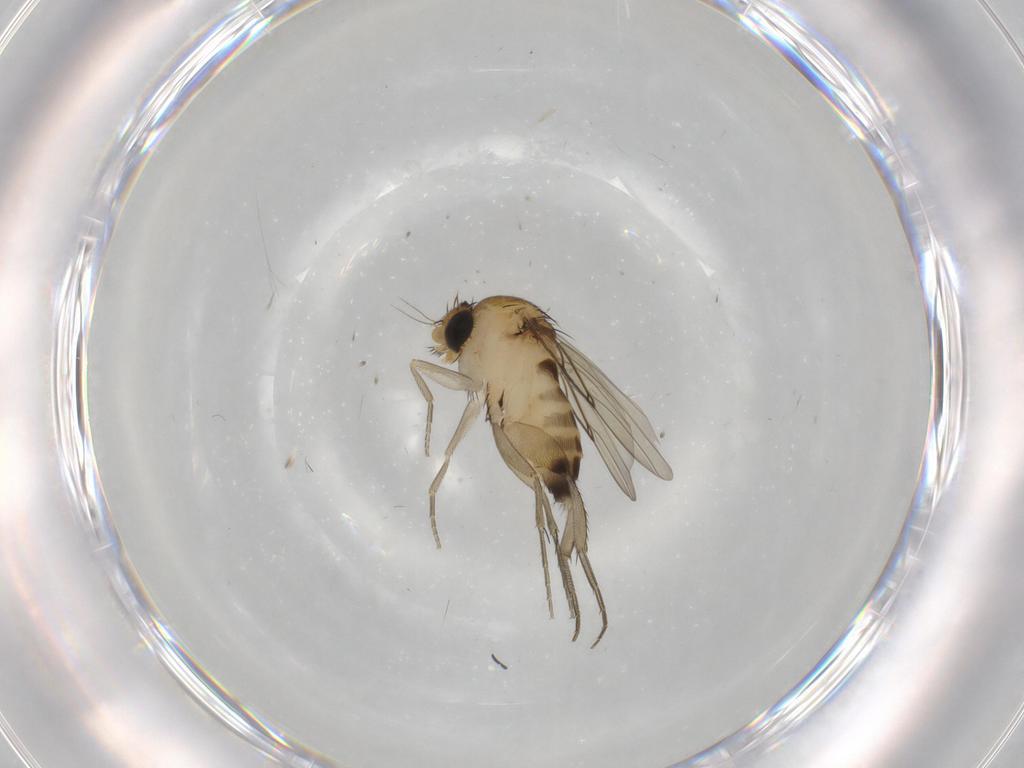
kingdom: Animalia
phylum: Arthropoda
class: Insecta
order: Diptera
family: Phoridae
